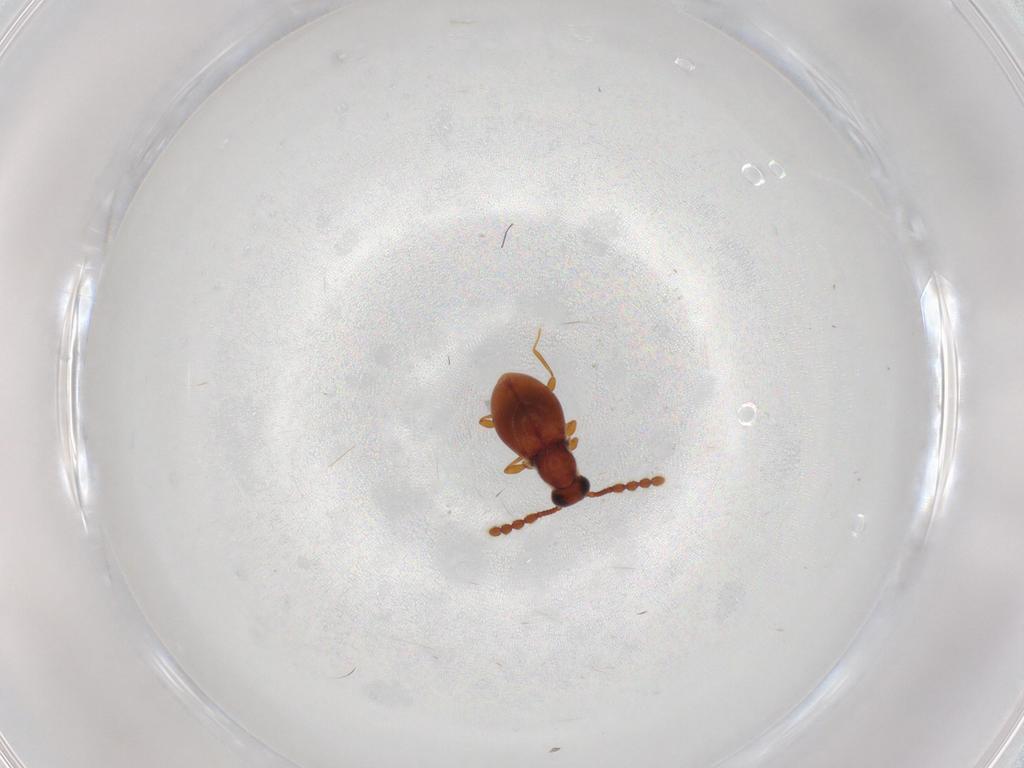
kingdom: Animalia
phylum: Arthropoda
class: Insecta
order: Coleoptera
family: Staphylinidae
